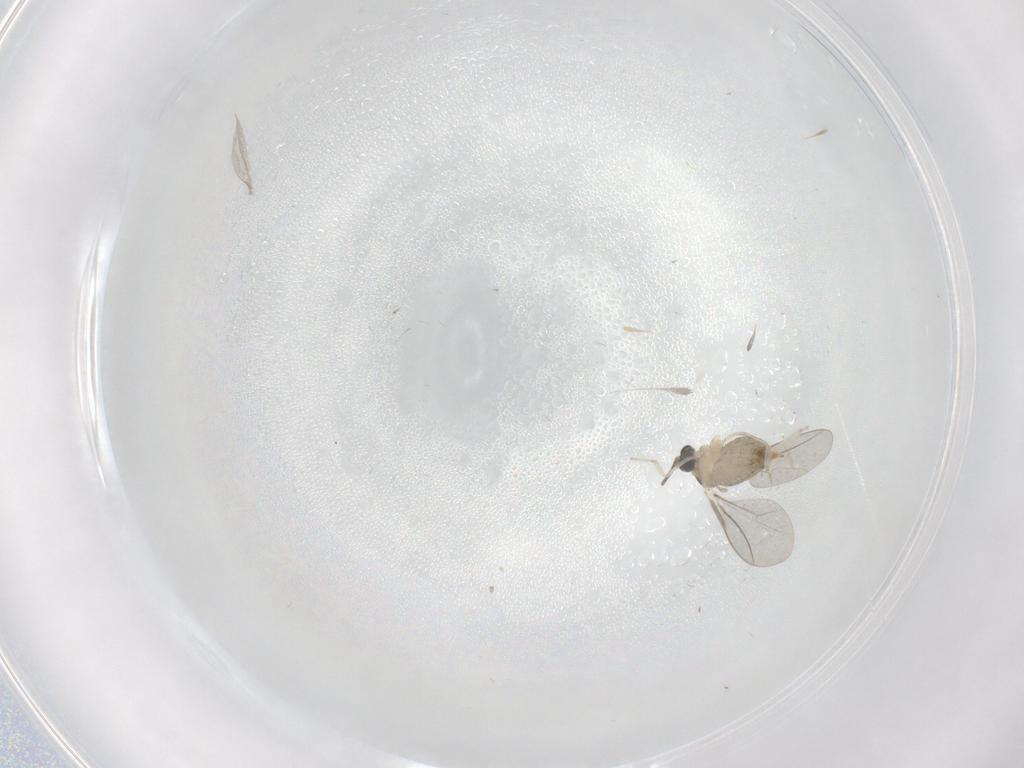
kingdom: Animalia
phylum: Arthropoda
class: Insecta
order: Diptera
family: Cecidomyiidae
